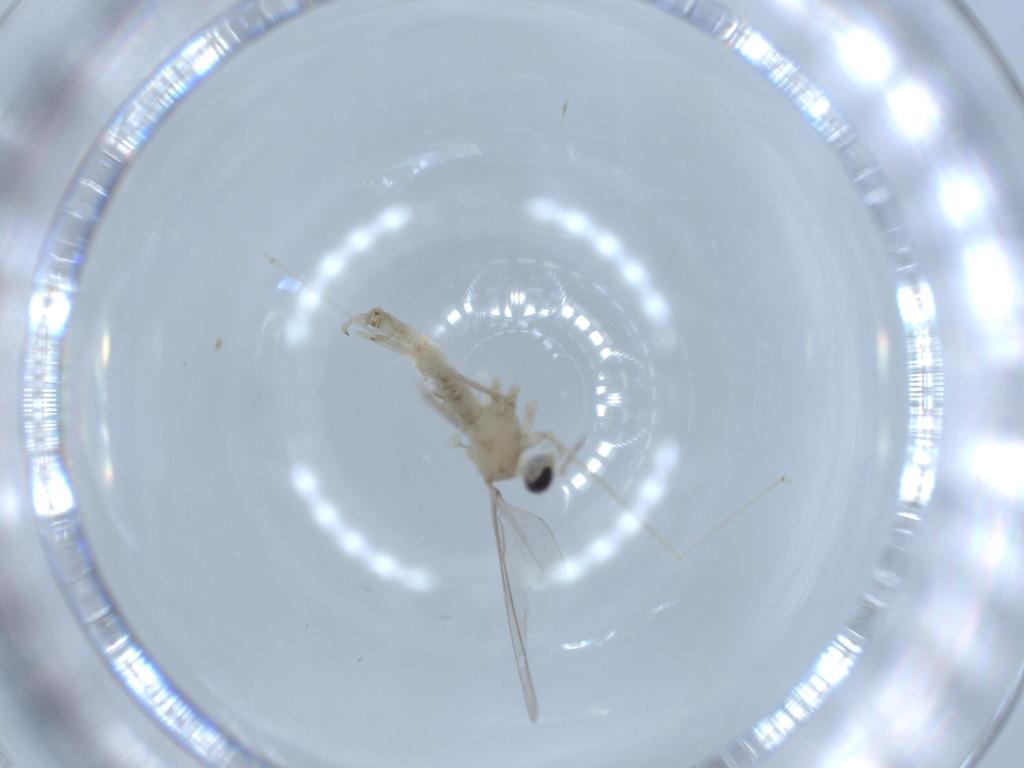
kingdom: Animalia
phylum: Arthropoda
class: Insecta
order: Diptera
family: Cecidomyiidae
